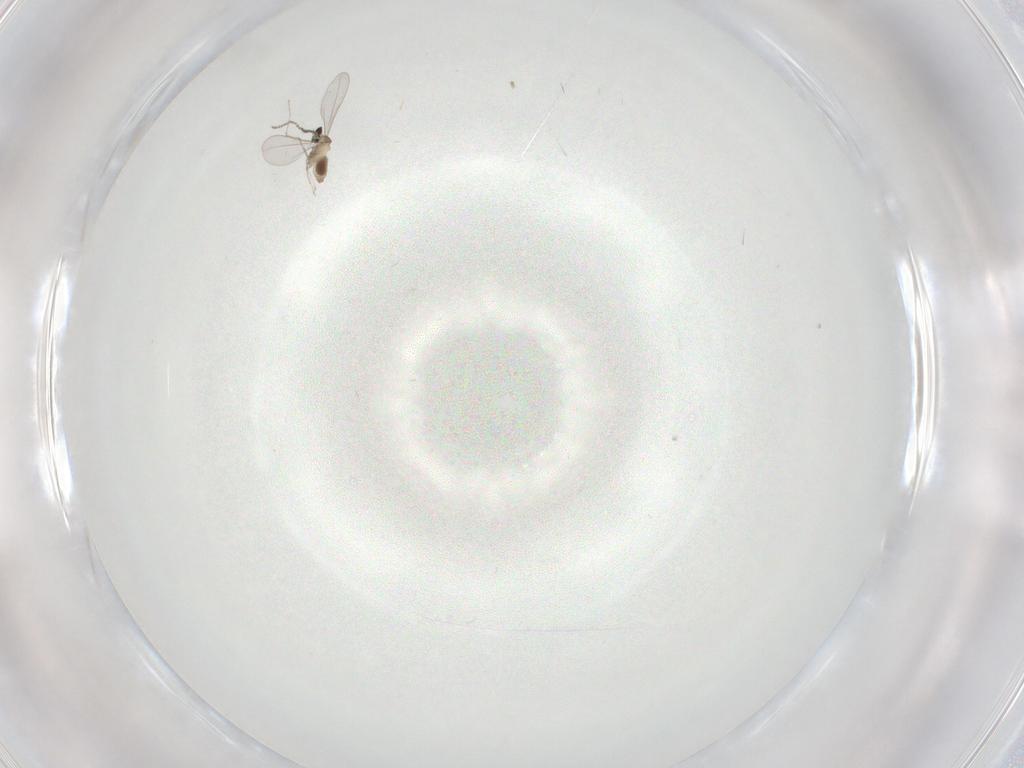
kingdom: Animalia
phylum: Arthropoda
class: Insecta
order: Diptera
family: Ceratopogonidae
